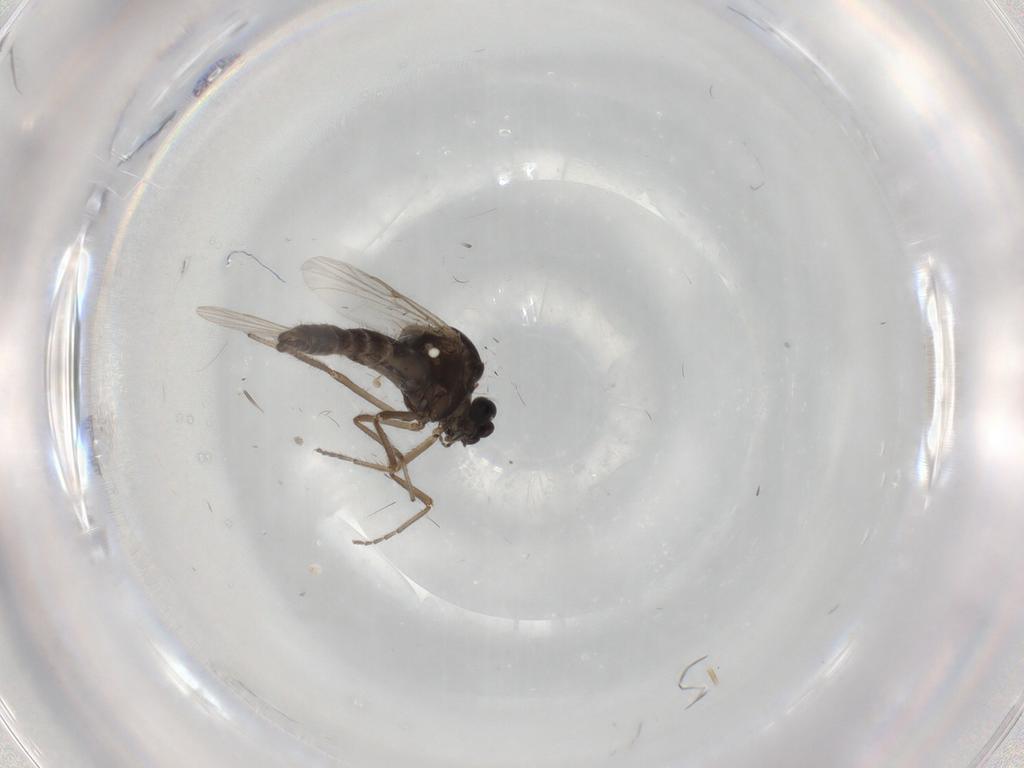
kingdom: Animalia
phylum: Arthropoda
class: Insecta
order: Diptera
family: Ceratopogonidae
